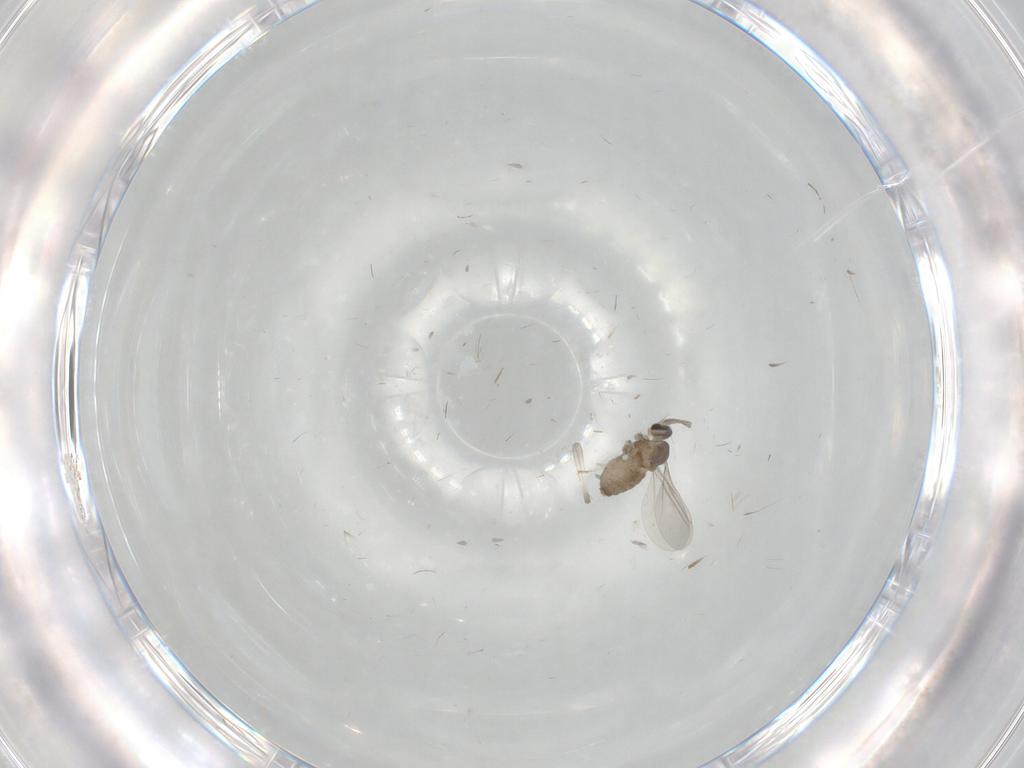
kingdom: Animalia
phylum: Arthropoda
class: Insecta
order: Diptera
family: Cecidomyiidae
